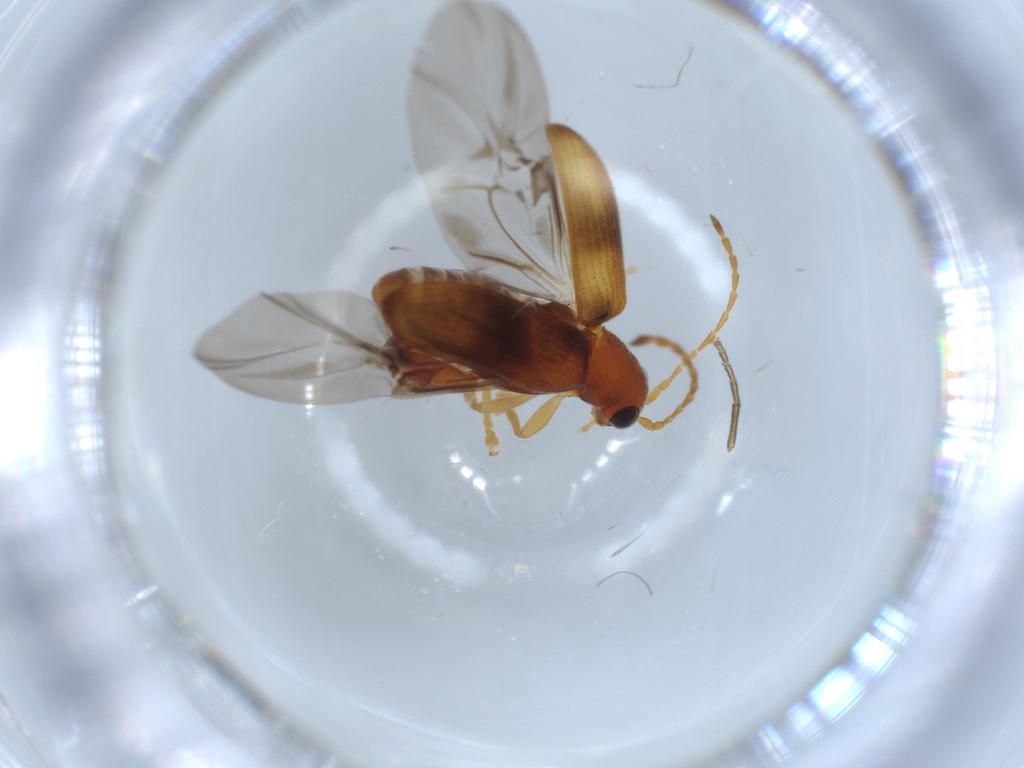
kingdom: Animalia
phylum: Arthropoda
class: Insecta
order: Coleoptera
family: Chrysomelidae
